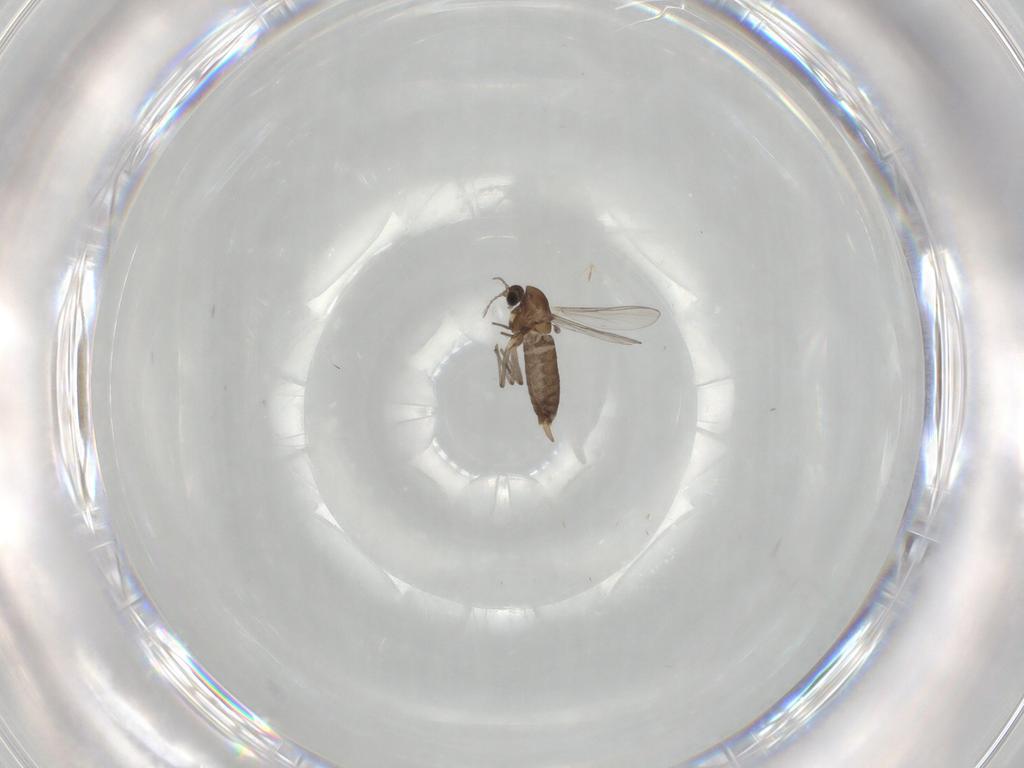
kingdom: Animalia
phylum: Arthropoda
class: Insecta
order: Diptera
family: Chironomidae
